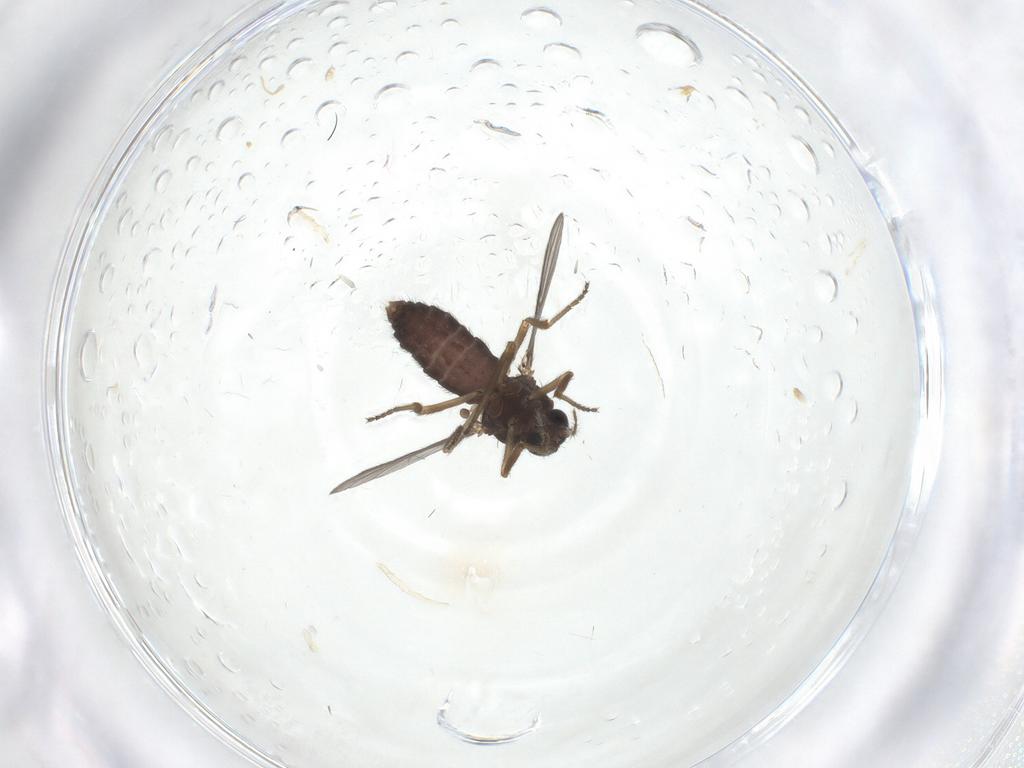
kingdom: Animalia
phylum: Arthropoda
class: Insecta
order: Diptera
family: Ceratopogonidae
